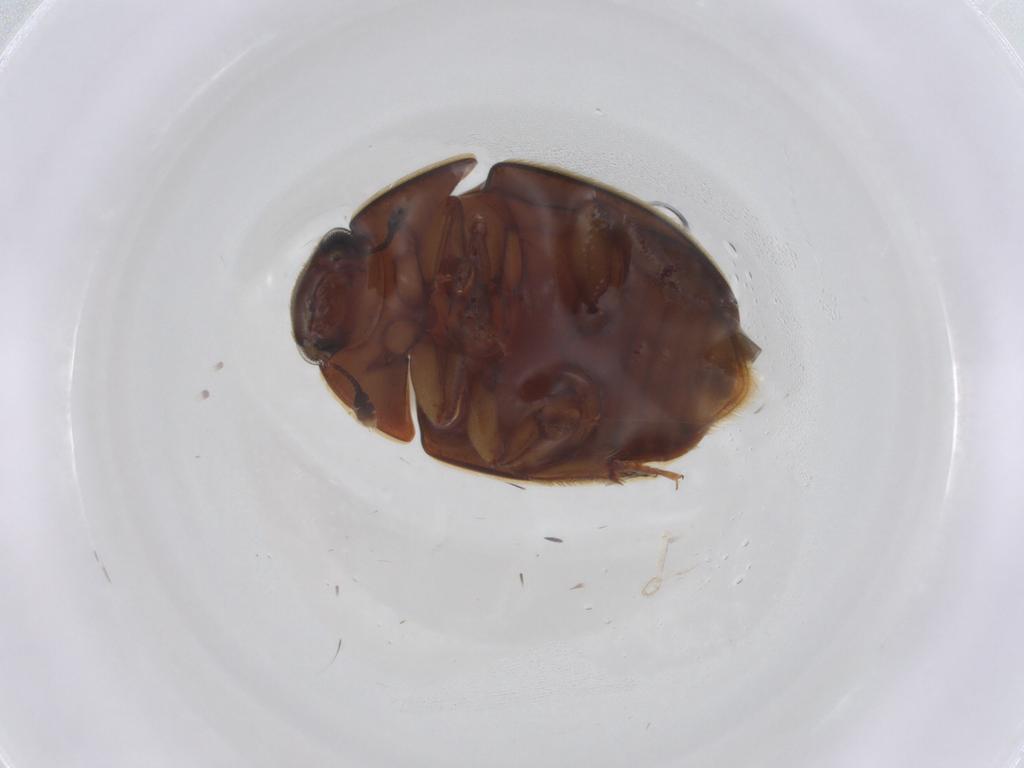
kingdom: Animalia
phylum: Arthropoda
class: Insecta
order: Coleoptera
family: Nitidulidae
